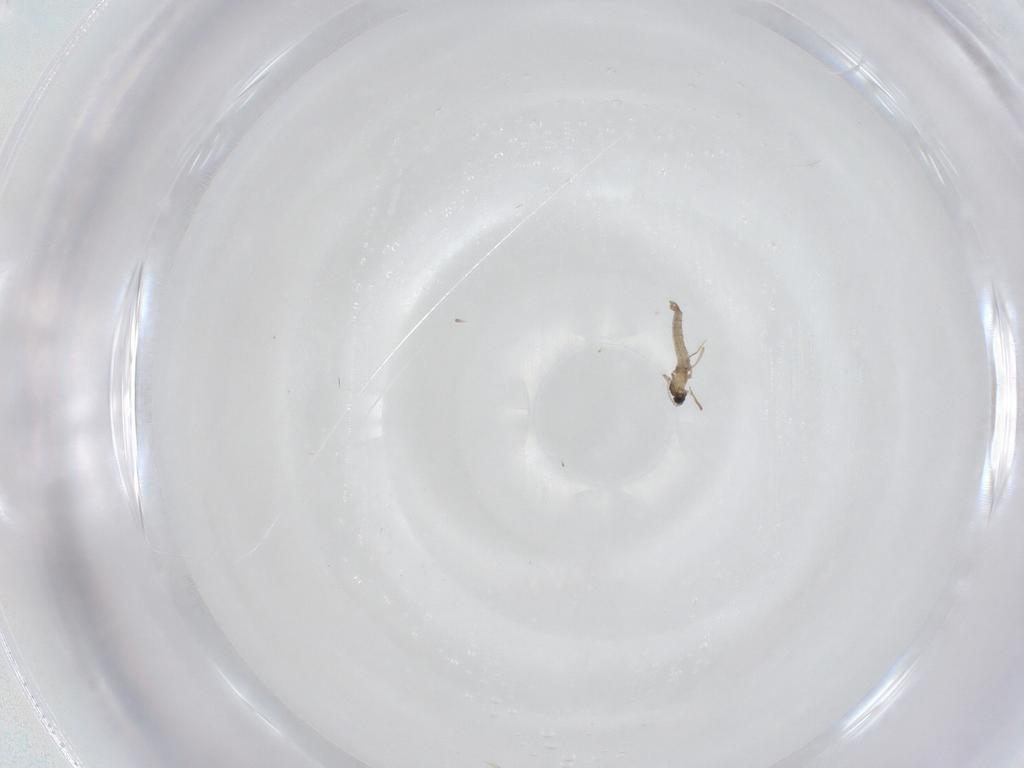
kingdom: Animalia
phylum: Arthropoda
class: Insecta
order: Diptera
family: Cecidomyiidae
